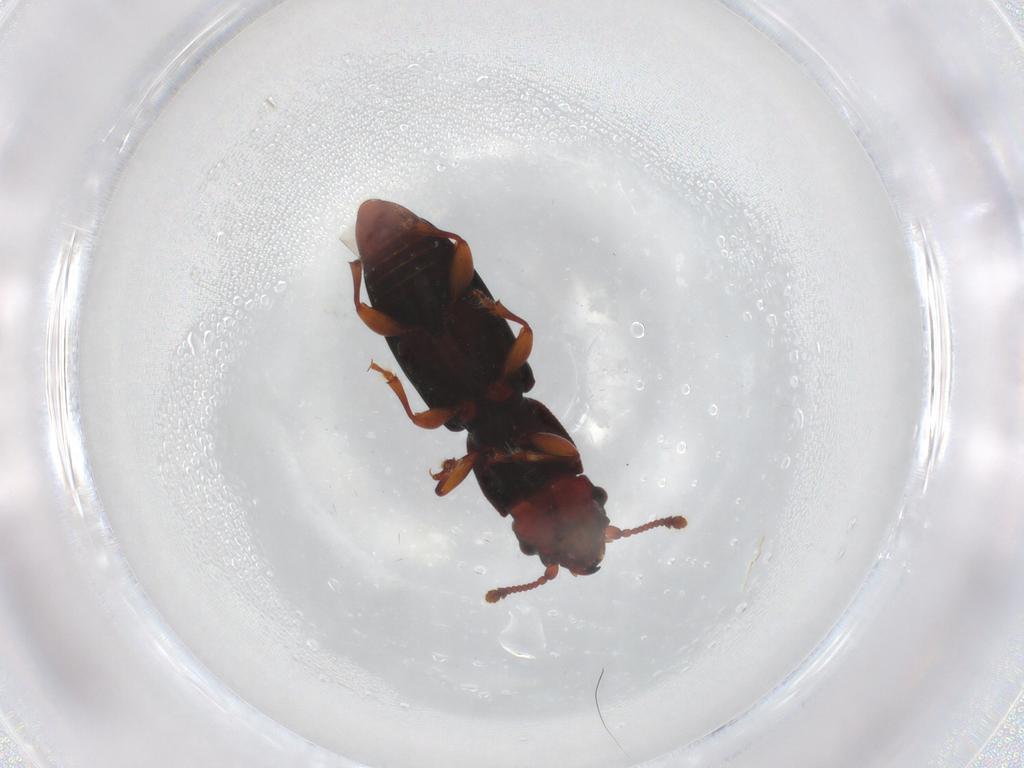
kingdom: Animalia
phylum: Arthropoda
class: Insecta
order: Coleoptera
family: Monotomidae
